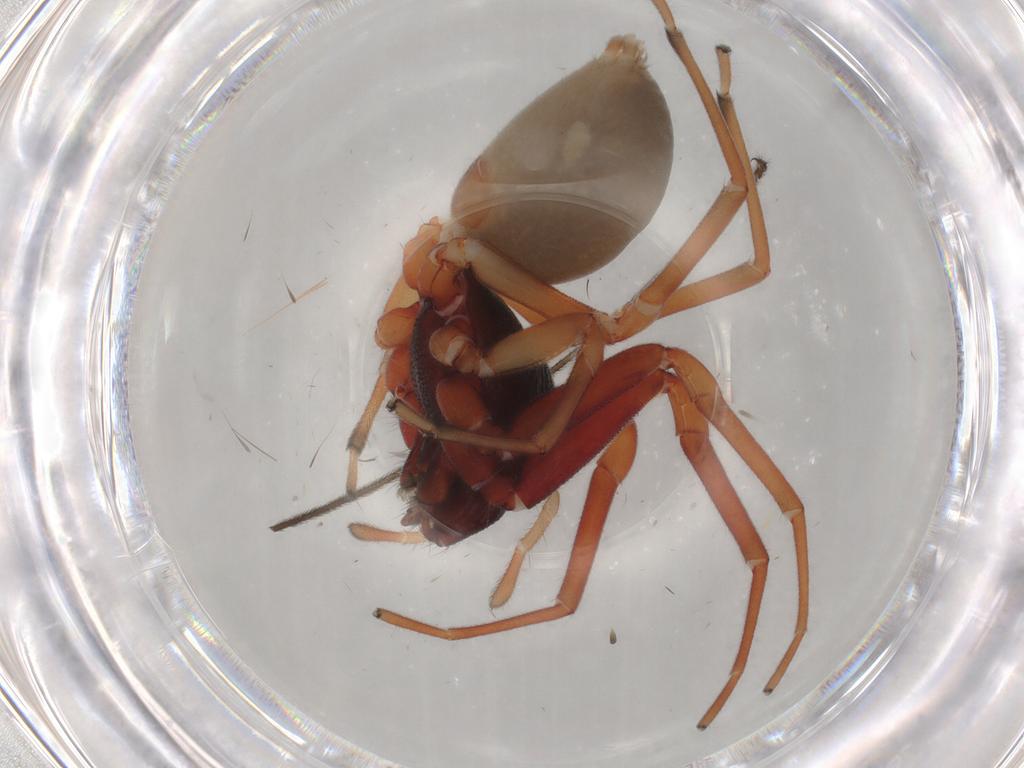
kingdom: Animalia
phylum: Arthropoda
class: Arachnida
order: Araneae
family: Trachelidae
